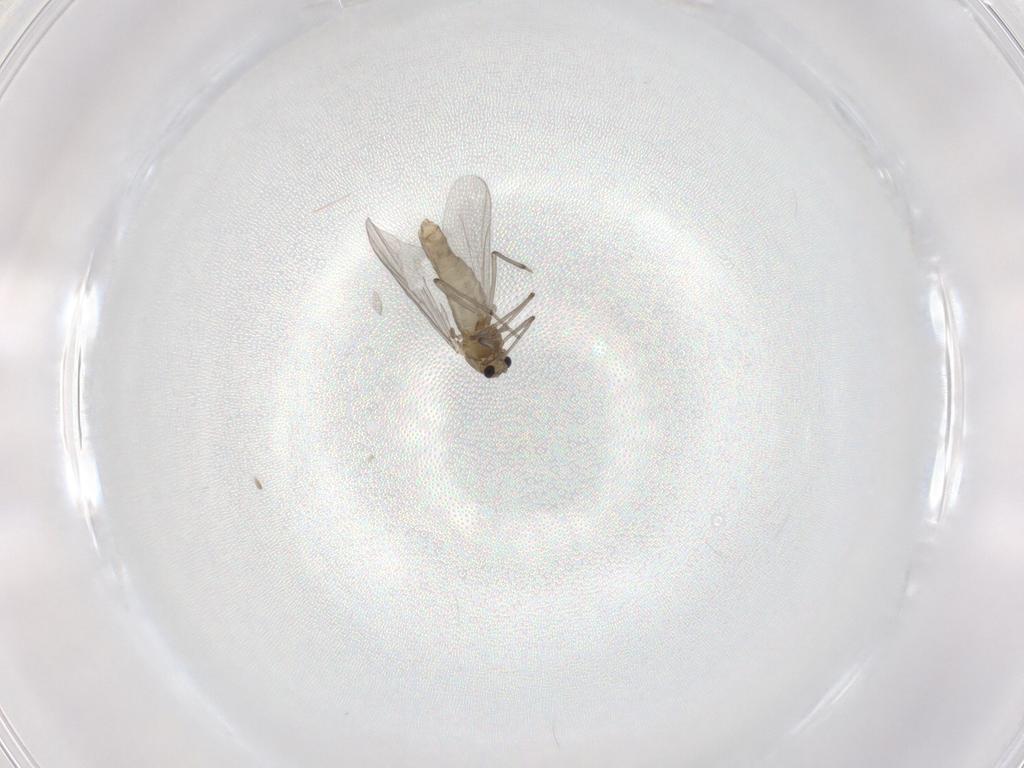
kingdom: Animalia
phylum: Arthropoda
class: Insecta
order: Diptera
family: Chironomidae
